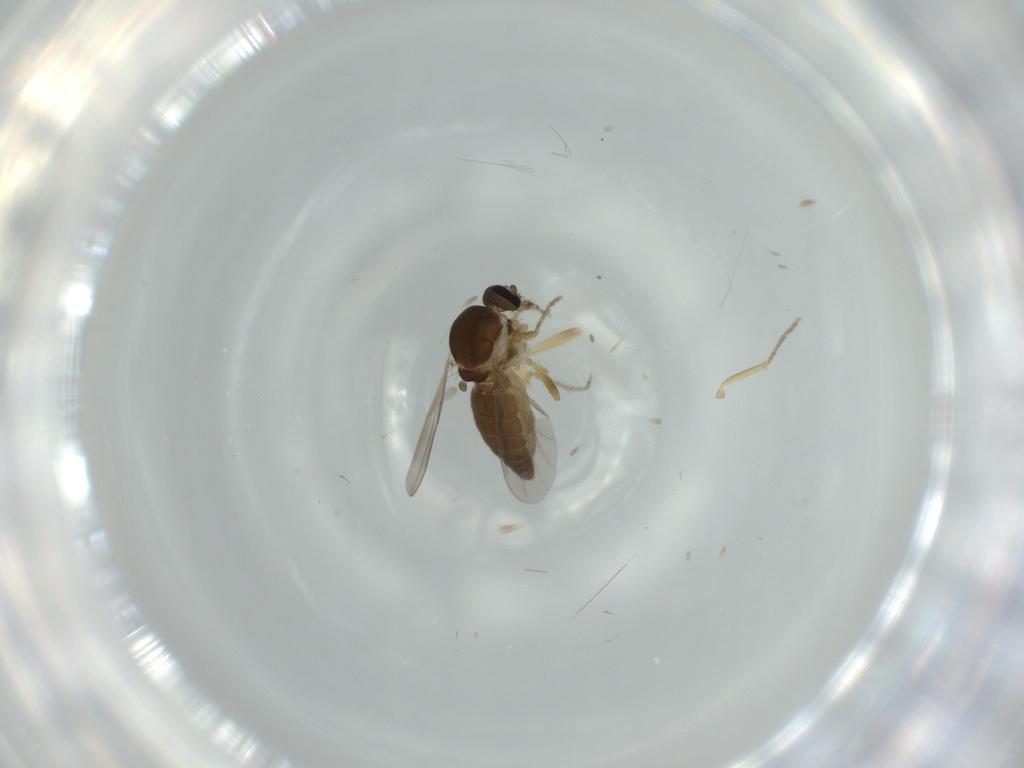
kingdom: Animalia
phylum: Arthropoda
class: Insecta
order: Diptera
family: Ceratopogonidae
